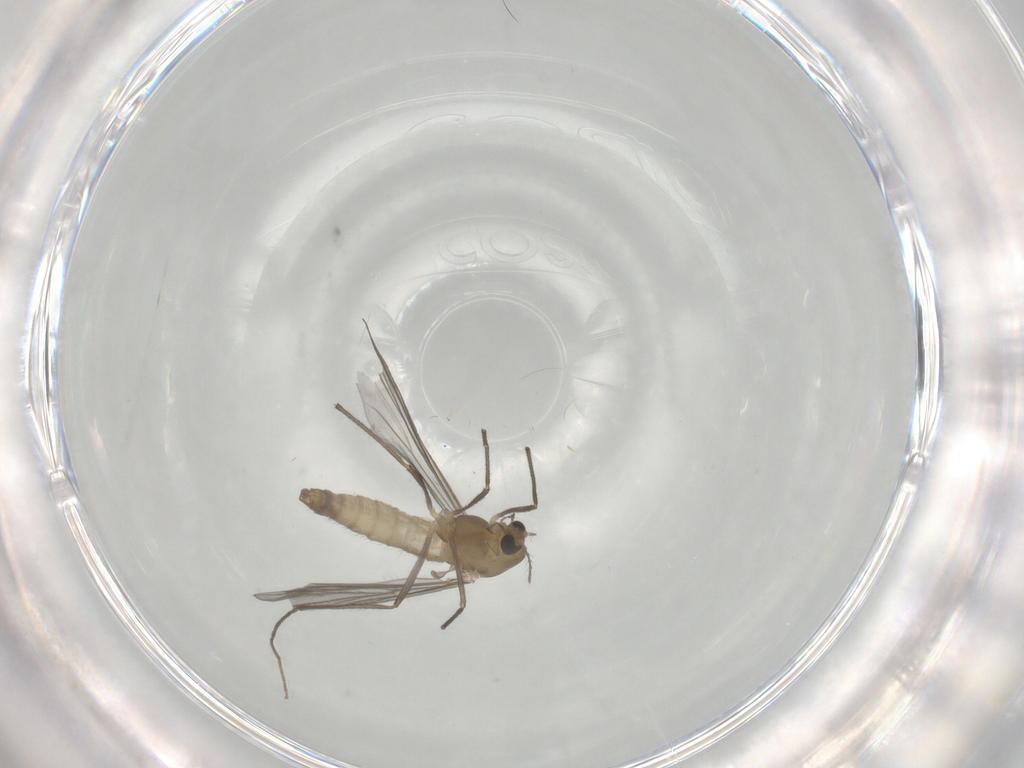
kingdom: Animalia
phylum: Arthropoda
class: Insecta
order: Diptera
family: Chironomidae
